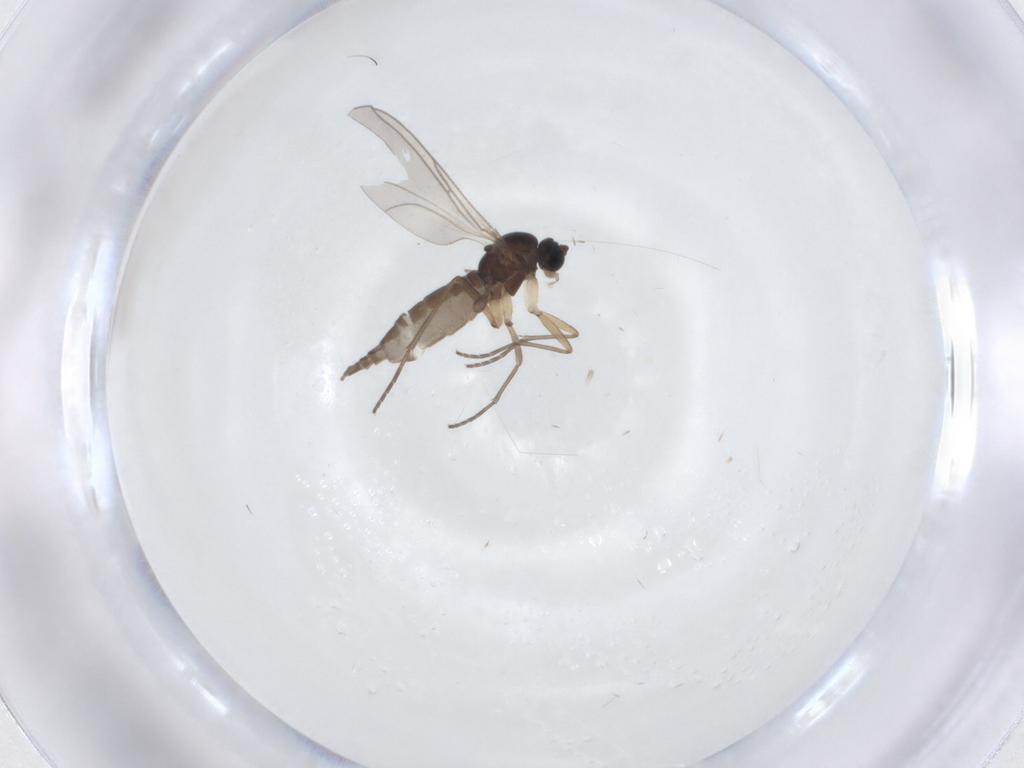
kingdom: Animalia
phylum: Arthropoda
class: Insecta
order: Diptera
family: Sciaridae
